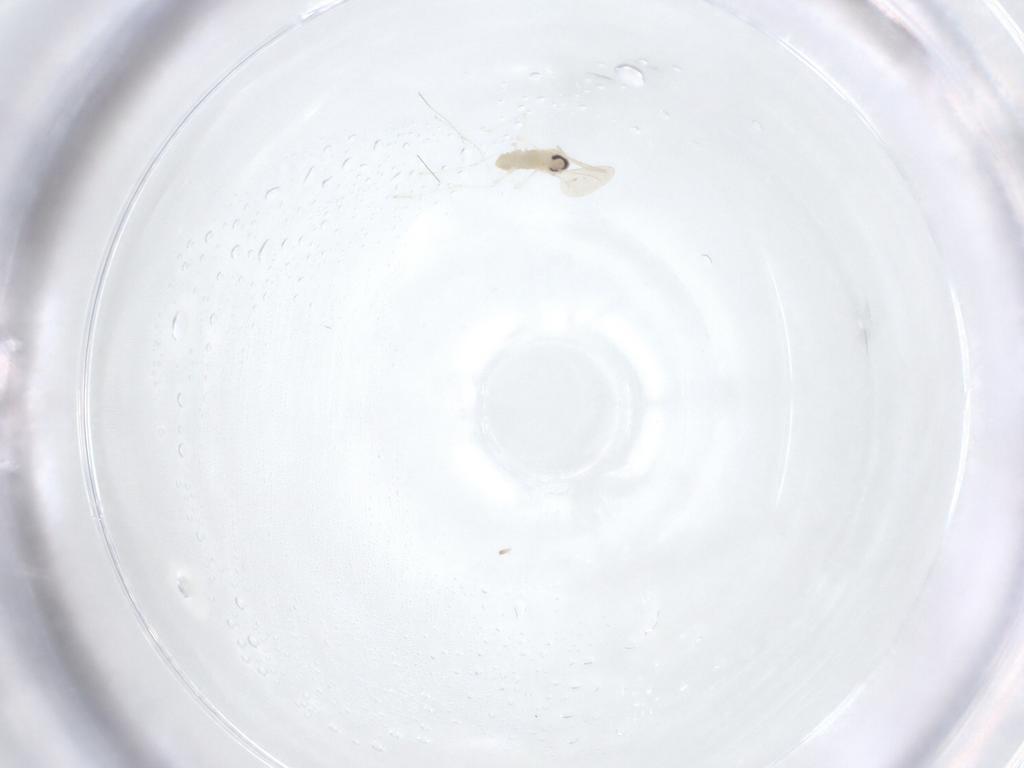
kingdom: Animalia
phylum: Arthropoda
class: Insecta
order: Diptera
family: Cecidomyiidae
